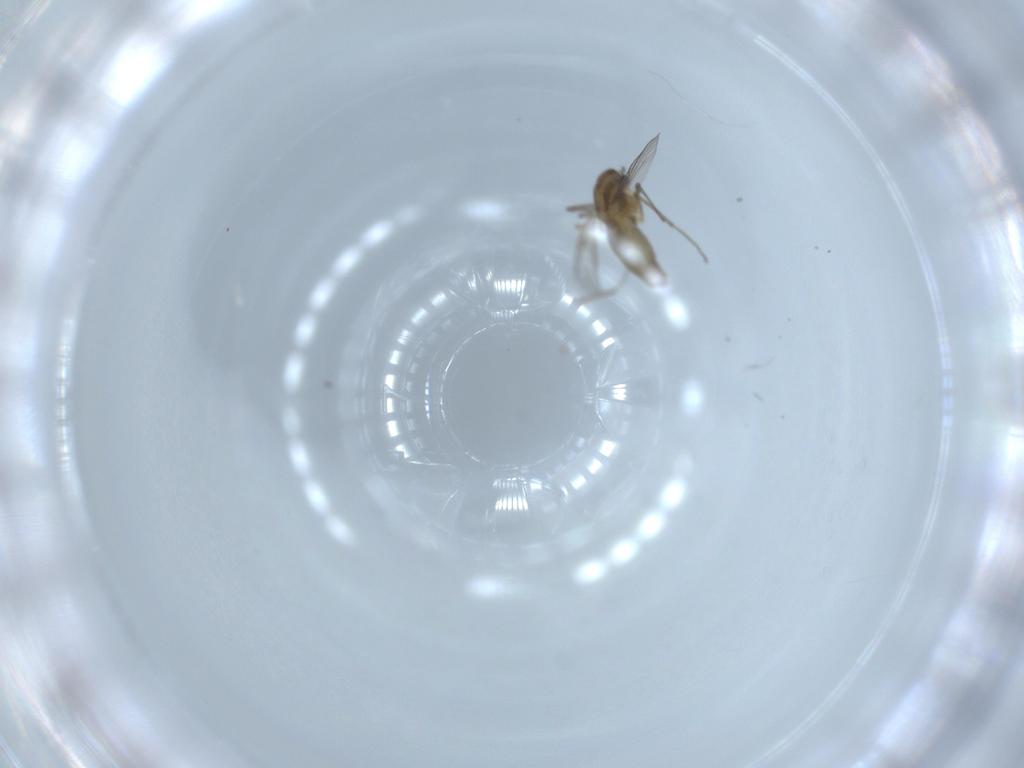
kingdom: Animalia
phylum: Arthropoda
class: Insecta
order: Diptera
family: Chironomidae
